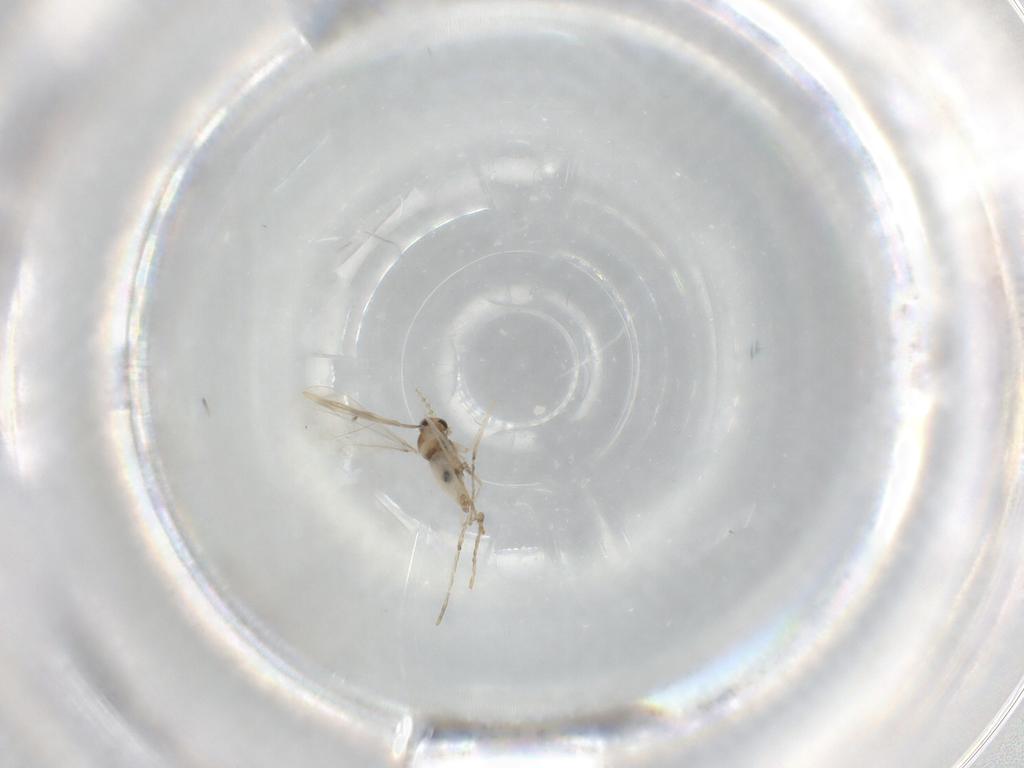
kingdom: Animalia
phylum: Arthropoda
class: Insecta
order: Diptera
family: Cecidomyiidae
